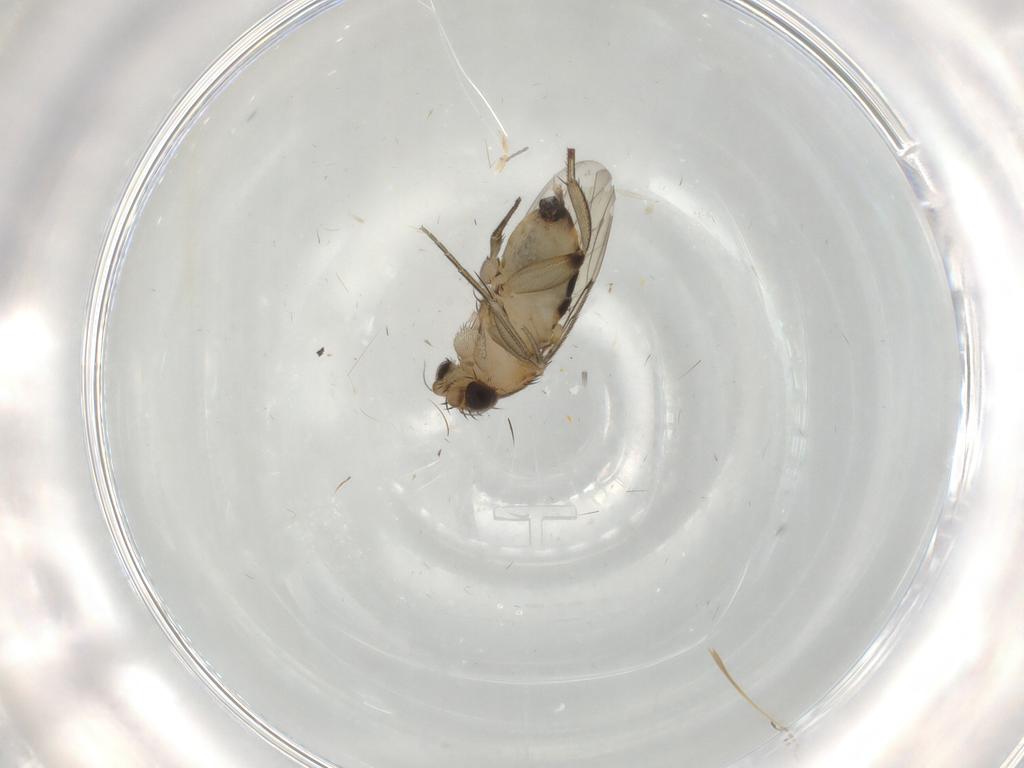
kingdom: Animalia
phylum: Arthropoda
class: Insecta
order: Diptera
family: Phoridae
